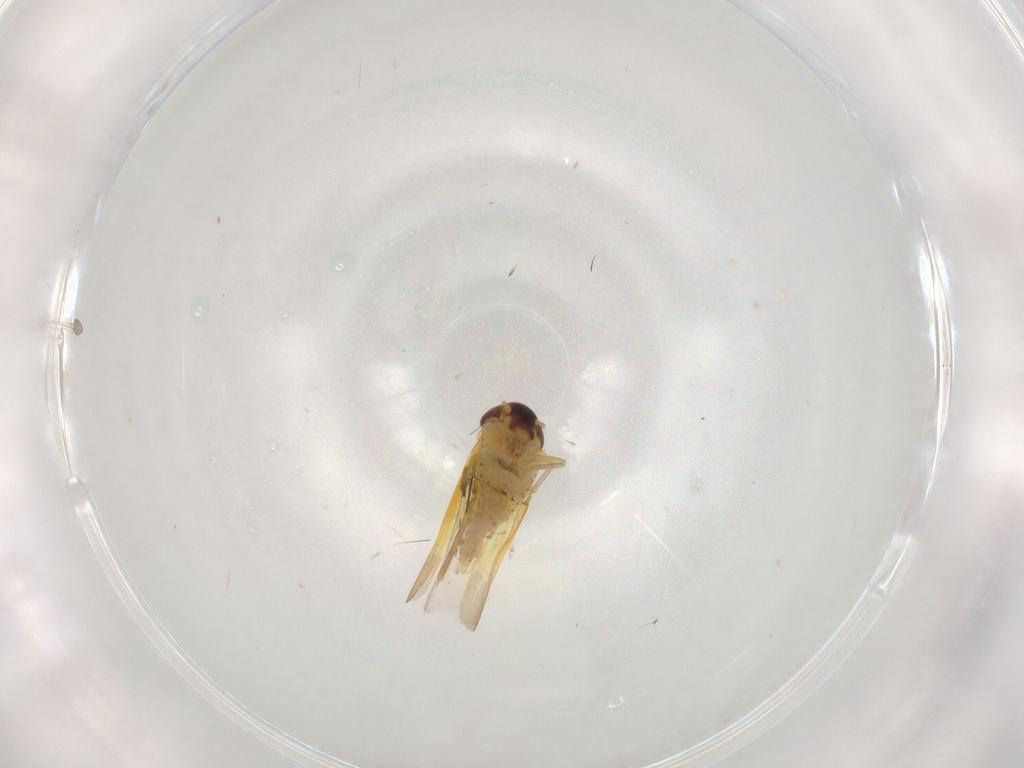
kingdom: Animalia
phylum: Arthropoda
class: Insecta
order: Hemiptera
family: Cicadellidae
